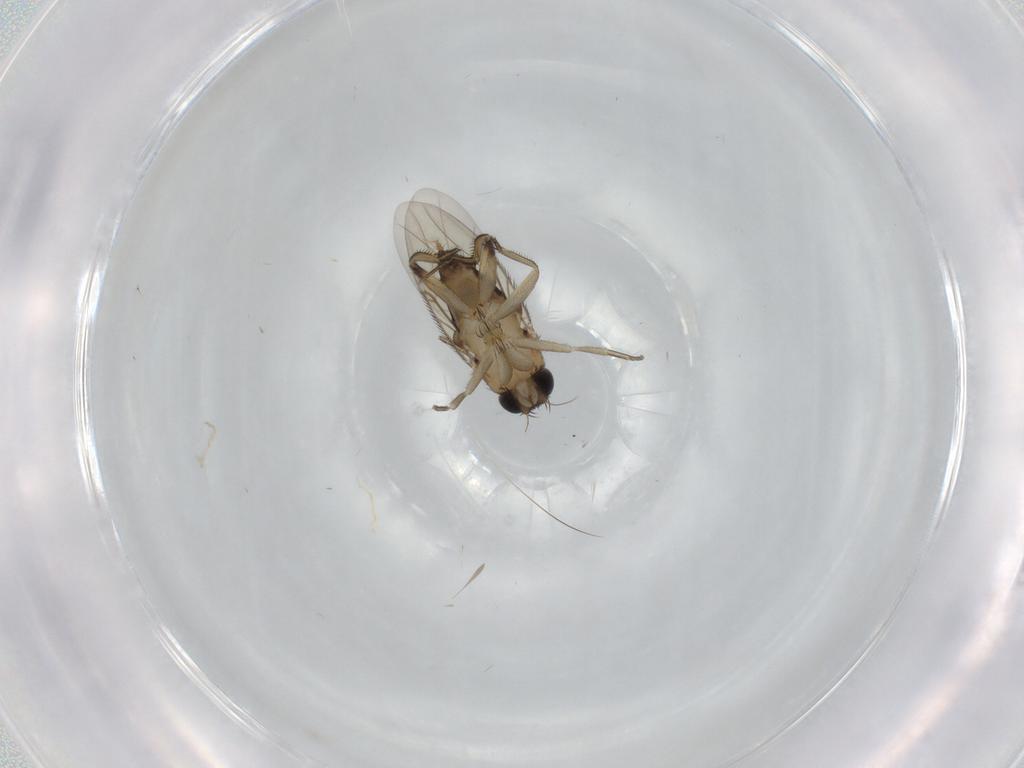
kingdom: Animalia
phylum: Arthropoda
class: Insecta
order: Diptera
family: Phoridae
